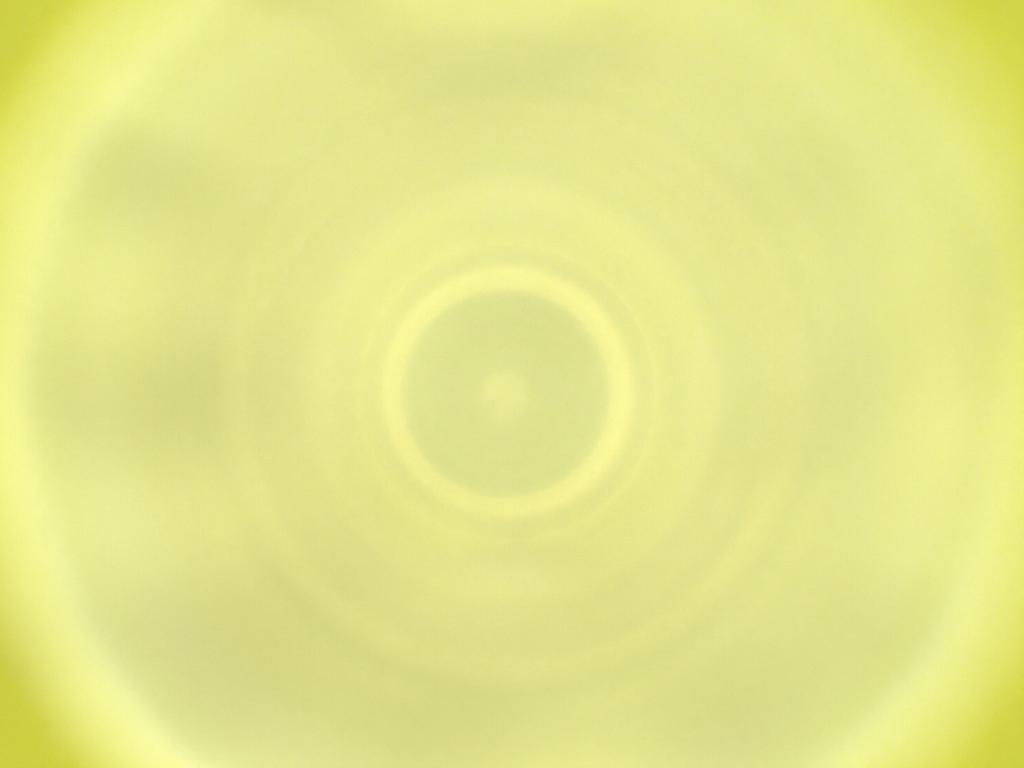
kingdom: Animalia
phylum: Arthropoda
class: Insecta
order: Diptera
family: Cecidomyiidae
